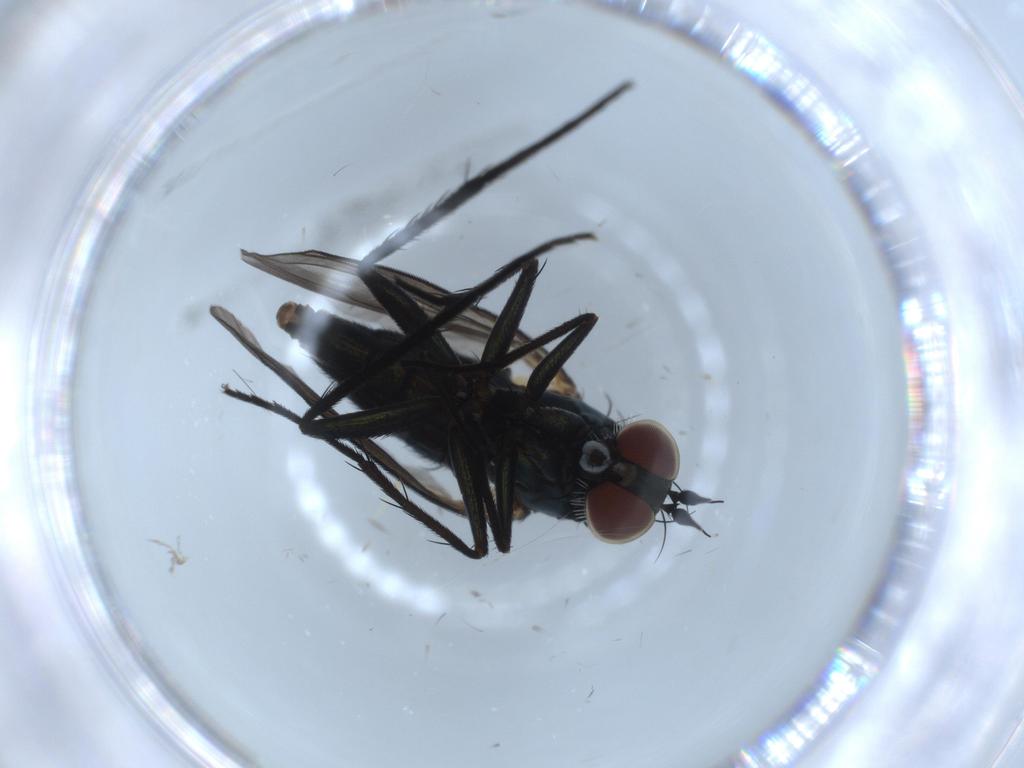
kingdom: Animalia
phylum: Arthropoda
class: Insecta
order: Diptera
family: Dolichopodidae
